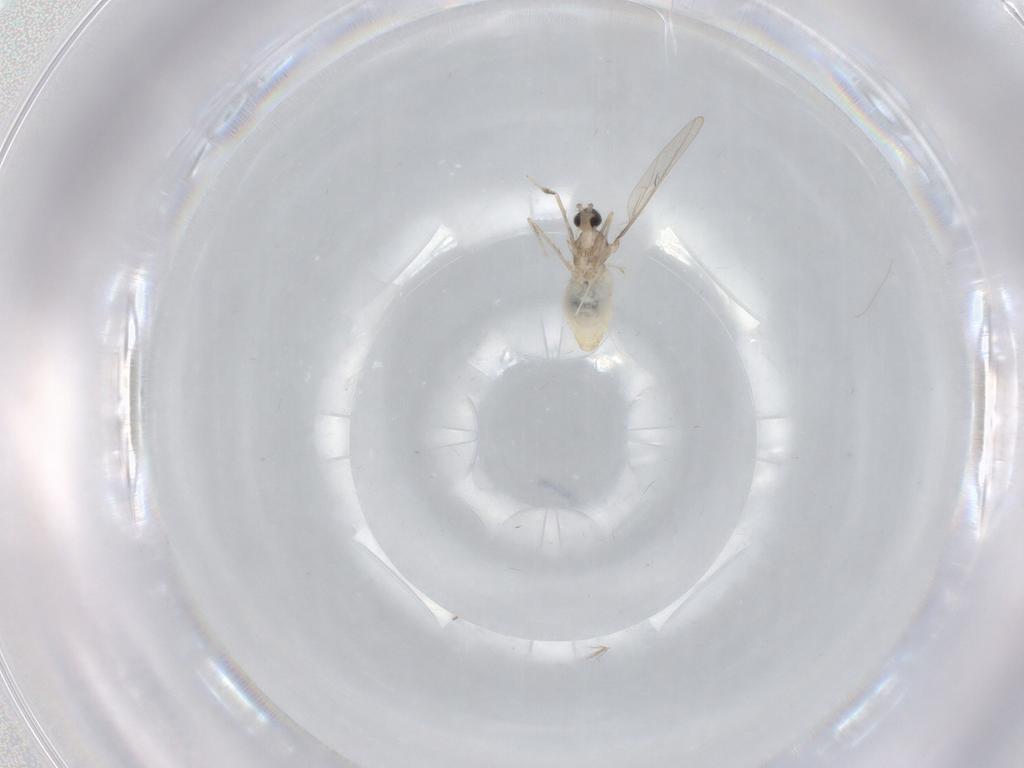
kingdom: Animalia
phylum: Arthropoda
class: Insecta
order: Diptera
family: Cecidomyiidae
